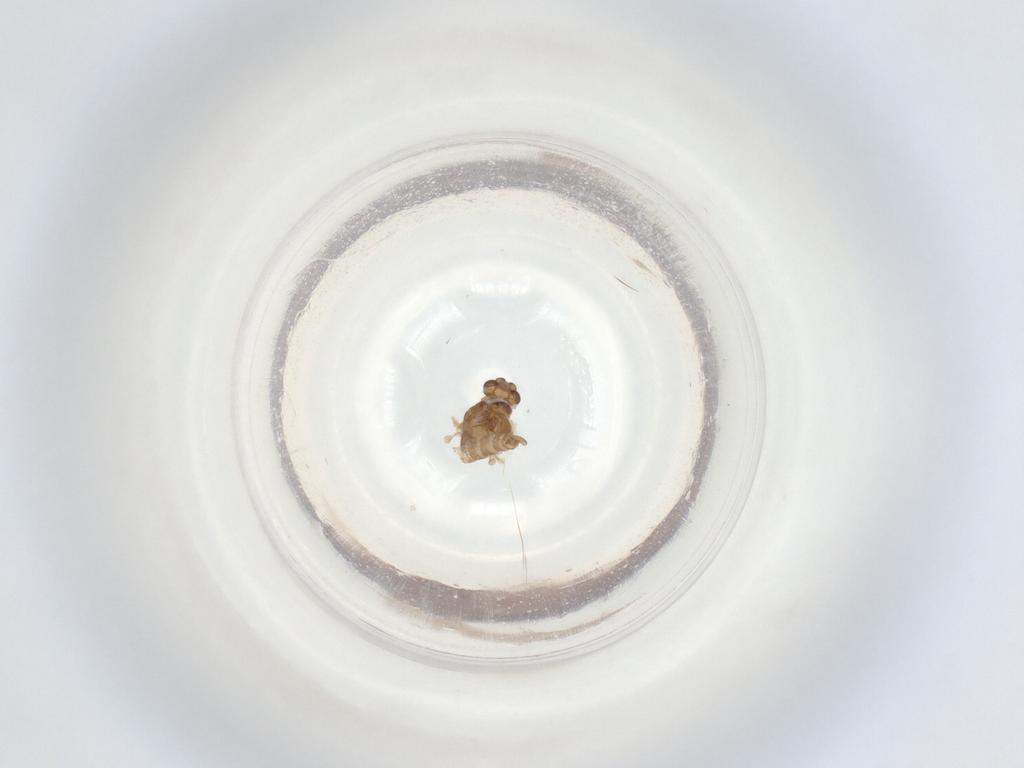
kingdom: Animalia
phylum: Arthropoda
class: Insecta
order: Diptera
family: Chironomidae
